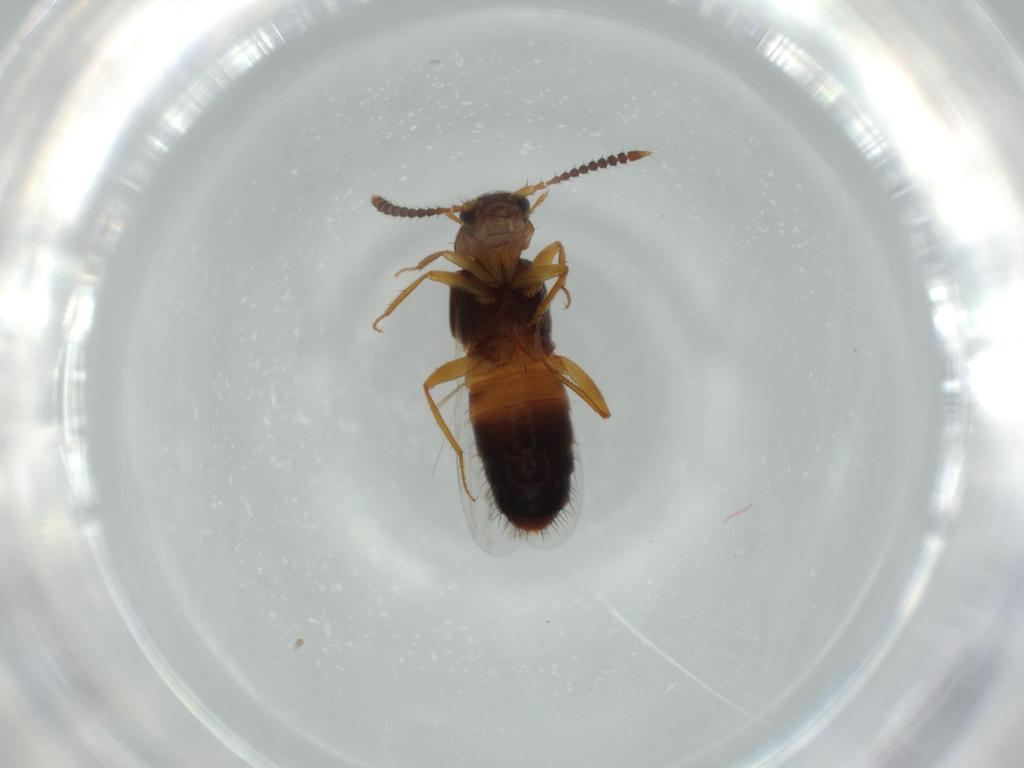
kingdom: Animalia
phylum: Arthropoda
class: Insecta
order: Coleoptera
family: Staphylinidae
